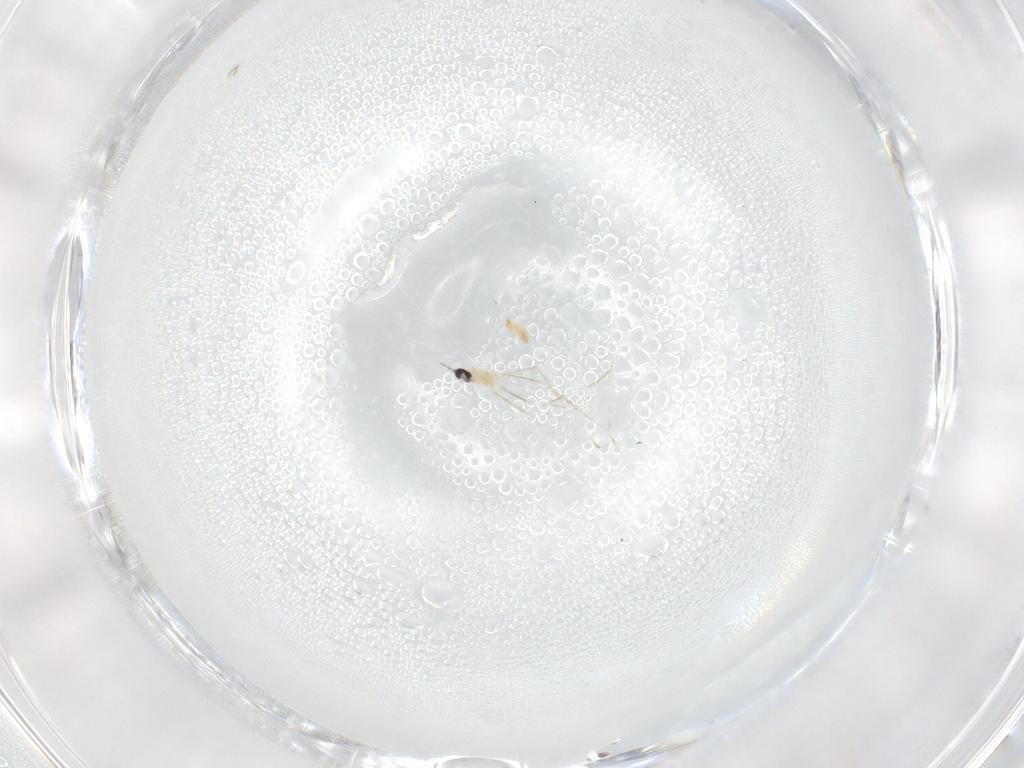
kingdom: Animalia
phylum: Arthropoda
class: Insecta
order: Diptera
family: Cecidomyiidae
